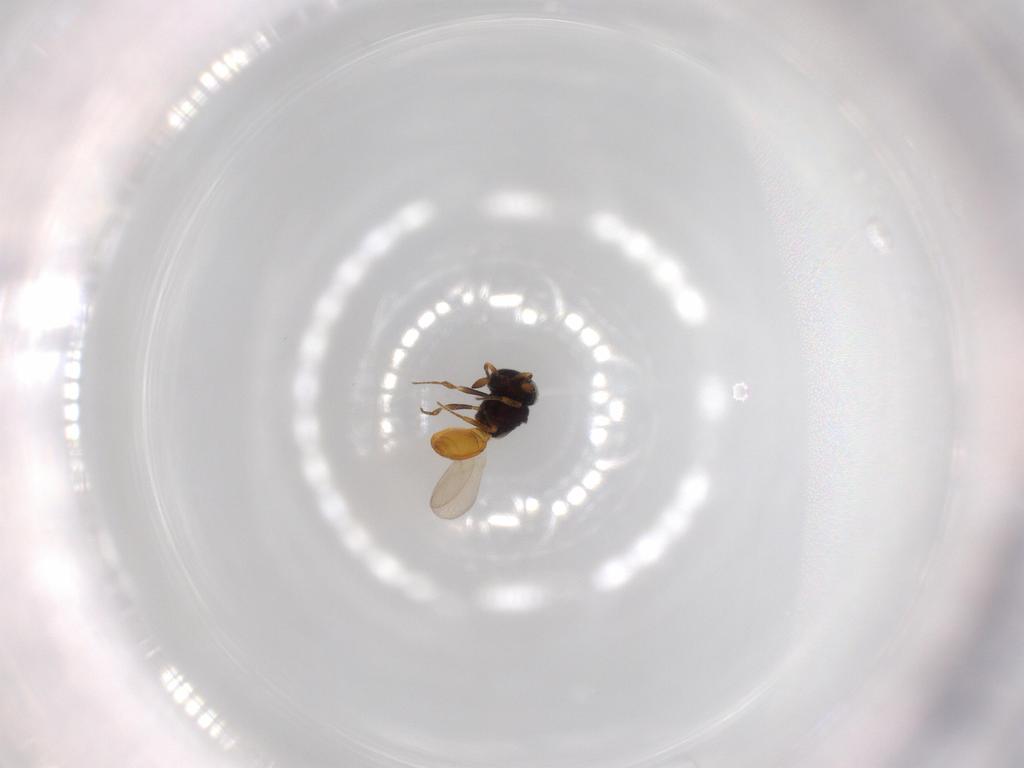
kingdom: Animalia
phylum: Arthropoda
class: Insecta
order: Hymenoptera
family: Scelionidae
